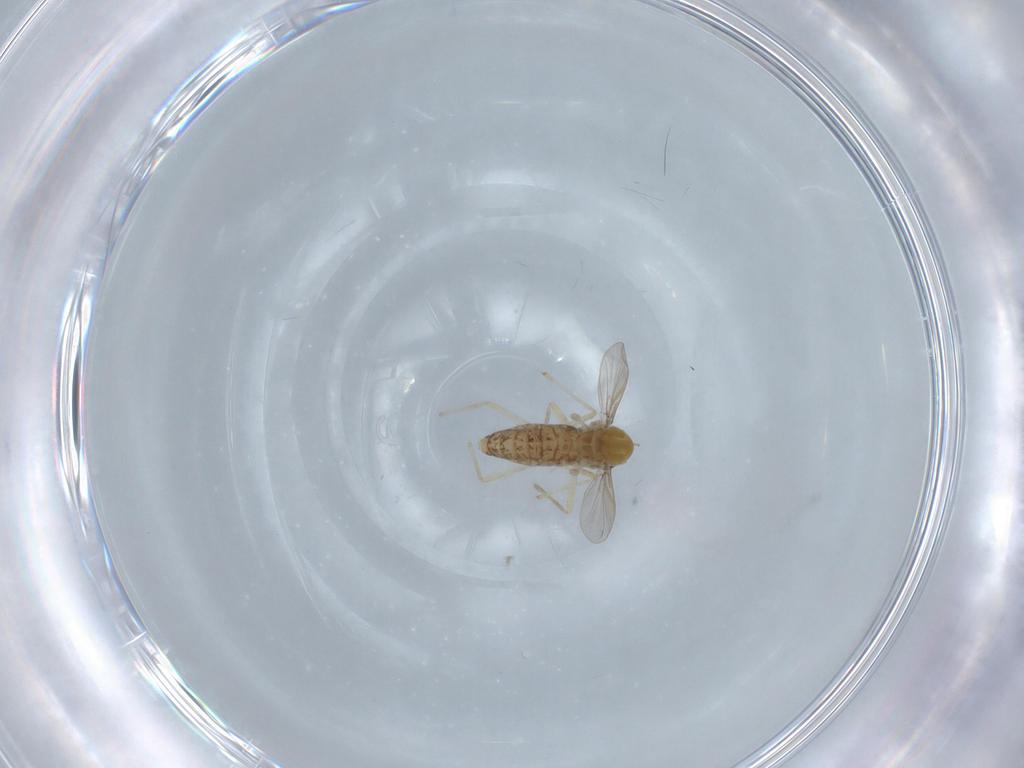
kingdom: Animalia
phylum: Arthropoda
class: Insecta
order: Diptera
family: Chironomidae
